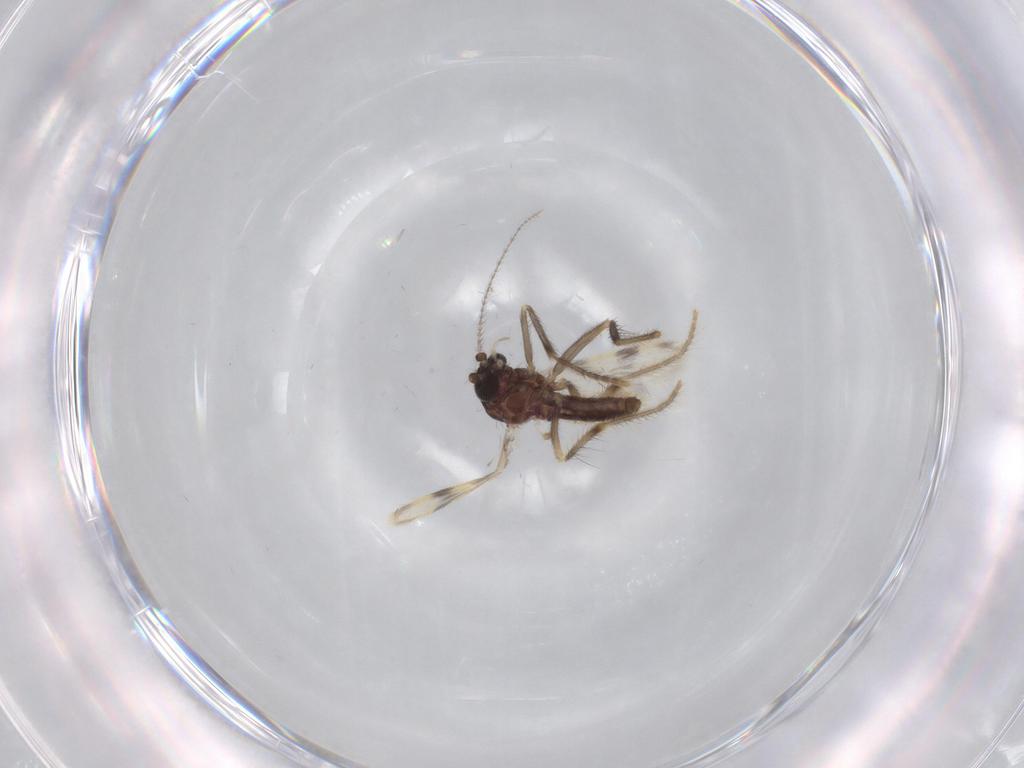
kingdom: Animalia
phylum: Arthropoda
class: Insecta
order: Diptera
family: Corethrellidae
